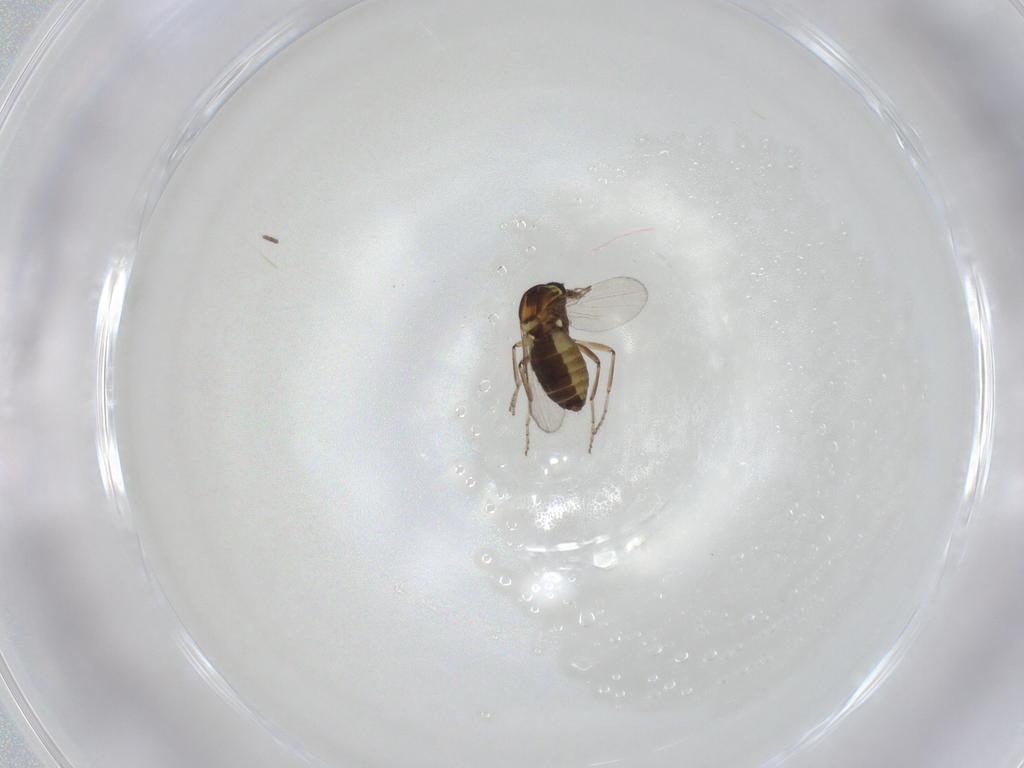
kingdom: Animalia
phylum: Arthropoda
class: Insecta
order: Diptera
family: Ceratopogonidae
